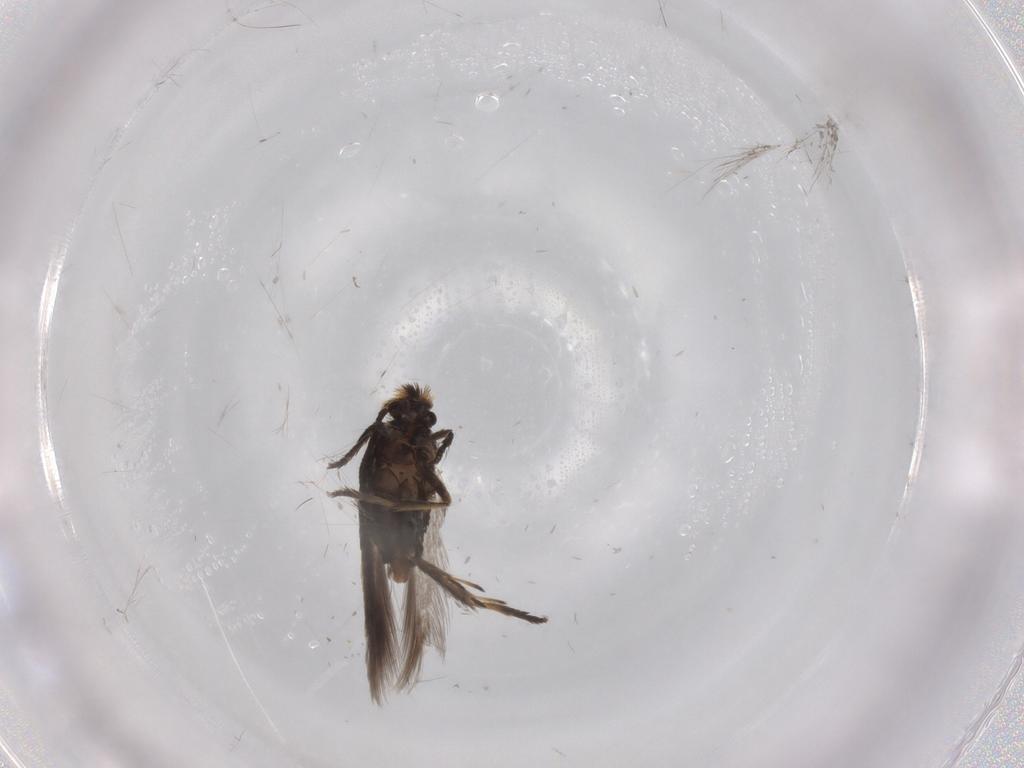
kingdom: Animalia
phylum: Arthropoda
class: Insecta
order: Lepidoptera
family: Nepticulidae
